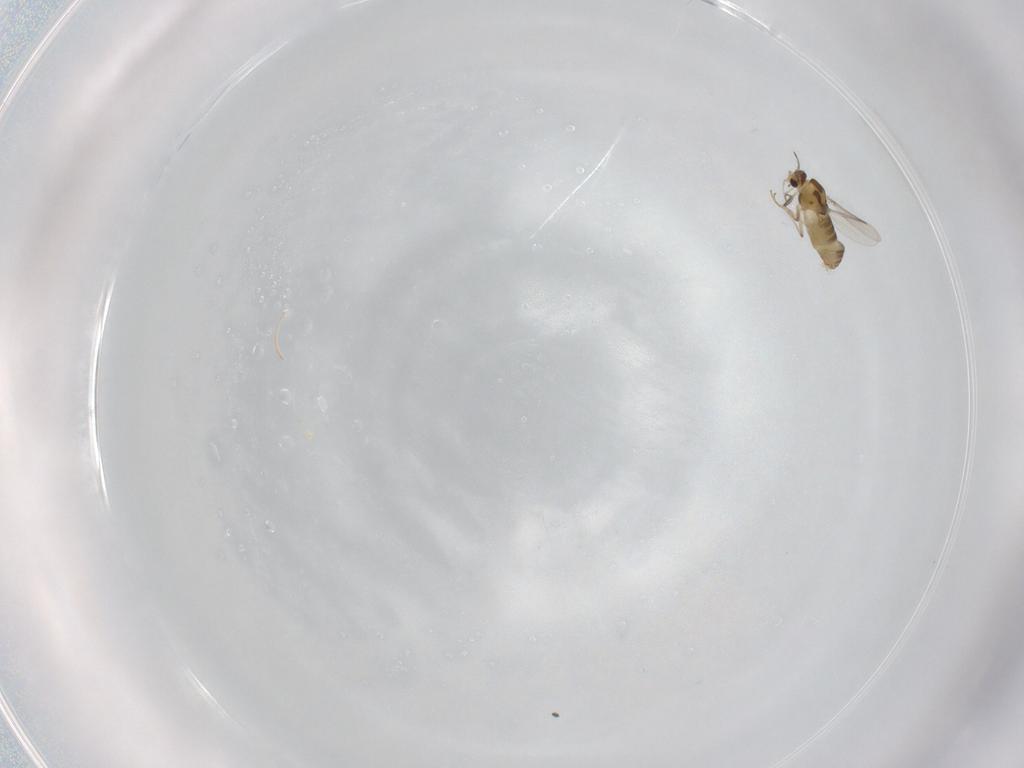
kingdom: Animalia
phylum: Arthropoda
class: Insecta
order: Diptera
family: Chironomidae
